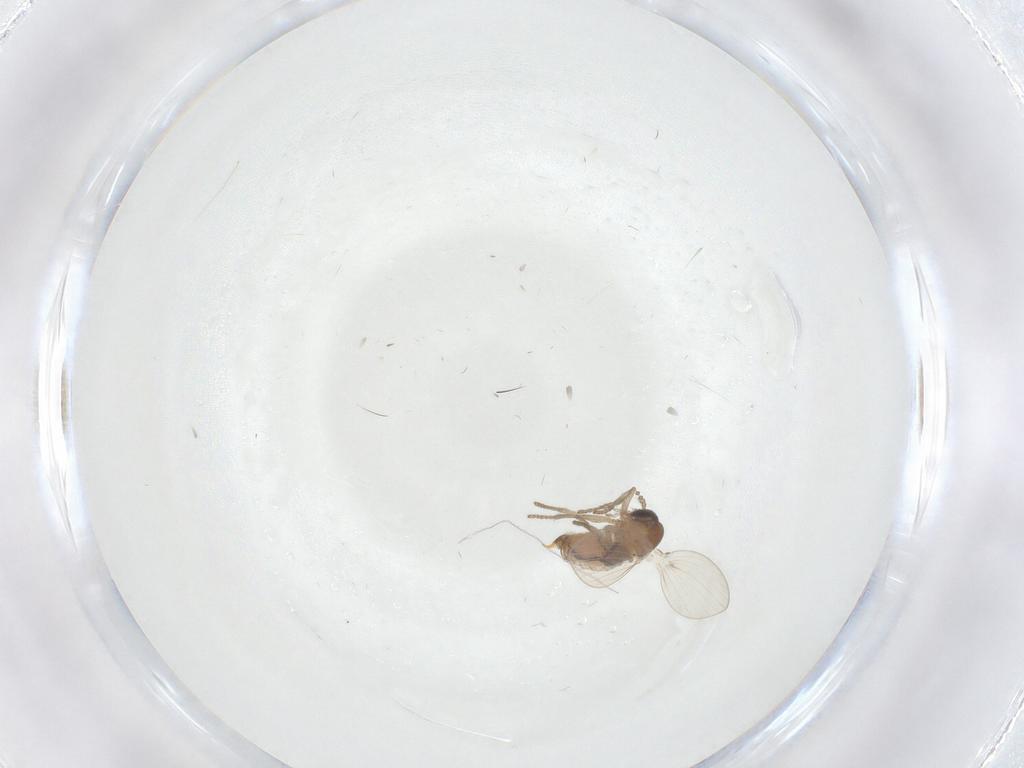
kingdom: Animalia
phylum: Arthropoda
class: Insecta
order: Diptera
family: Psychodidae
